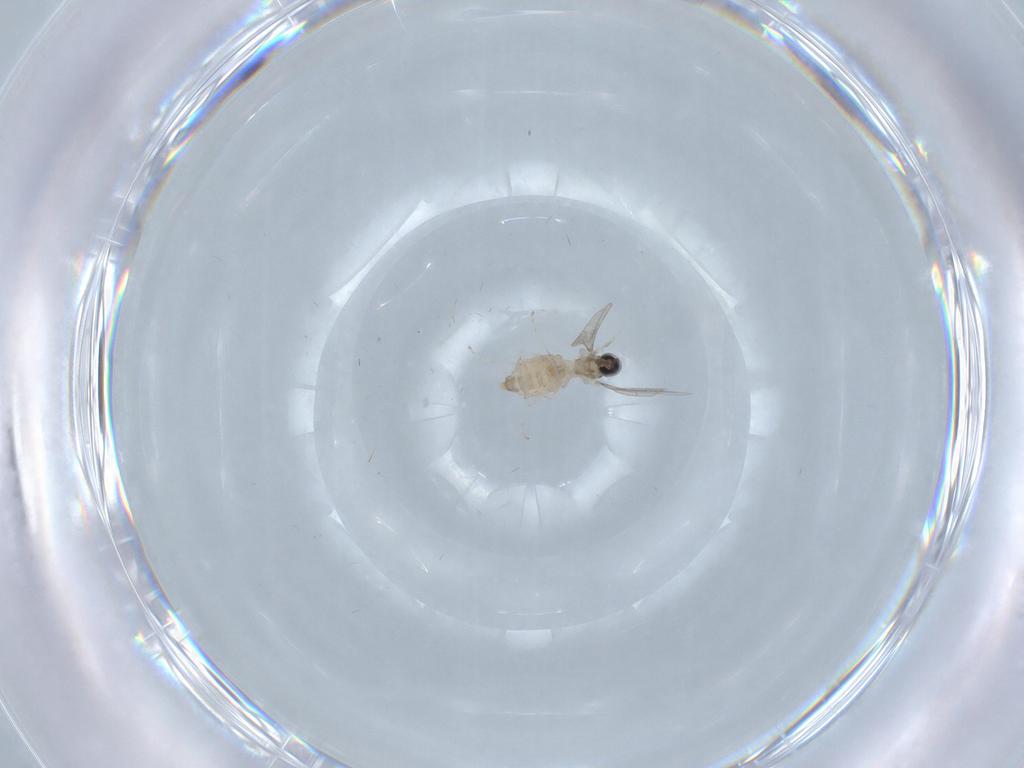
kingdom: Animalia
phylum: Arthropoda
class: Insecta
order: Diptera
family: Cecidomyiidae
